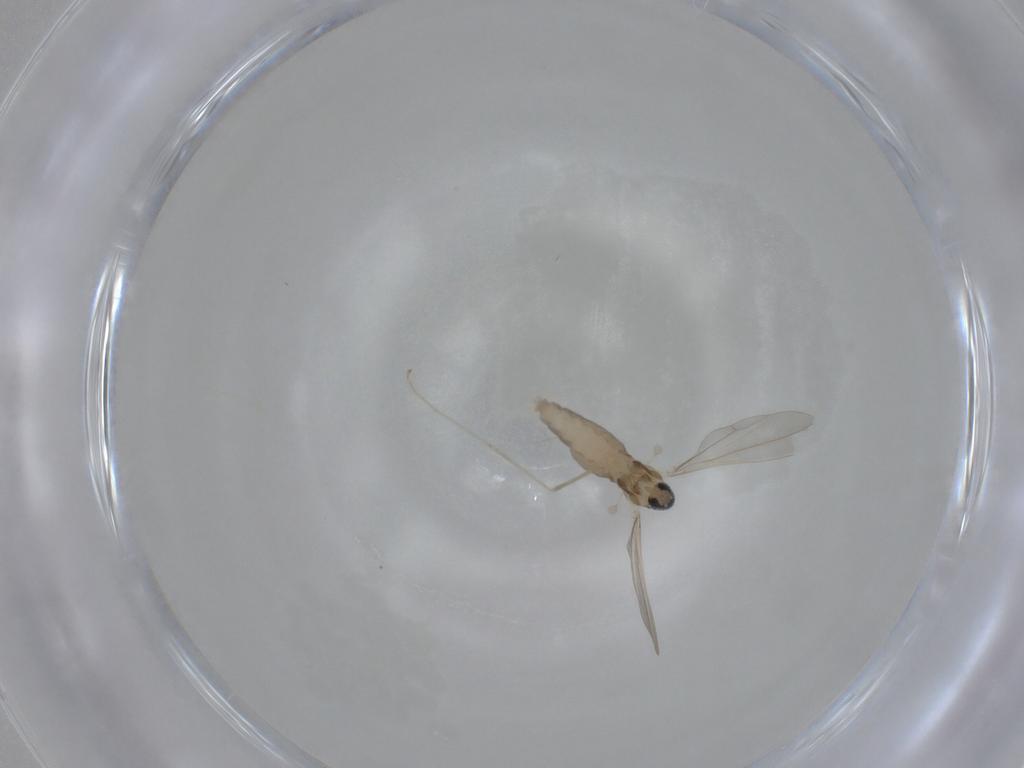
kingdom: Animalia
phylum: Arthropoda
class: Insecta
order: Diptera
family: Cecidomyiidae
